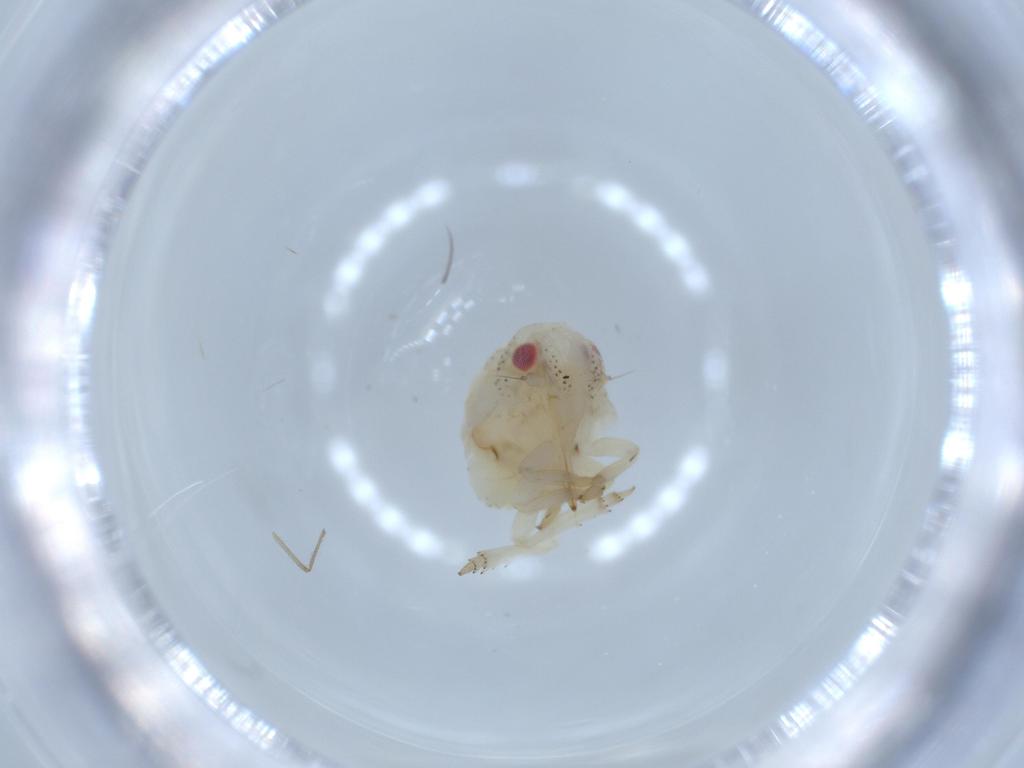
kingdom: Animalia
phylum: Arthropoda
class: Insecta
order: Hemiptera
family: Acanaloniidae
